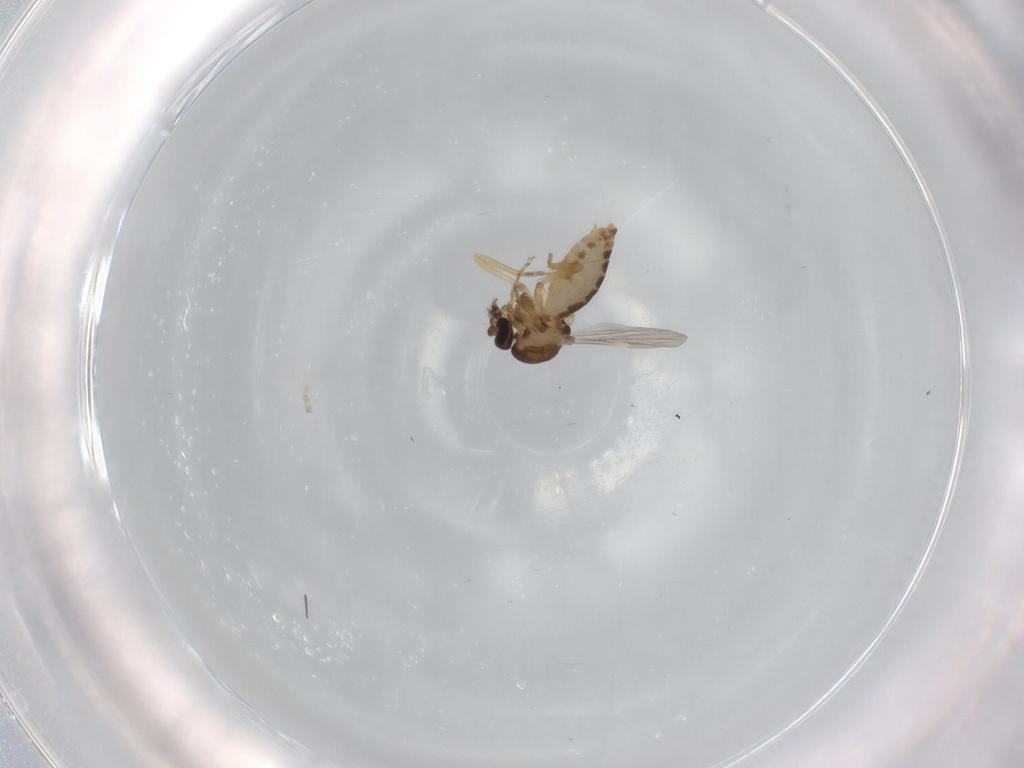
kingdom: Animalia
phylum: Arthropoda
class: Insecta
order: Diptera
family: Ceratopogonidae
